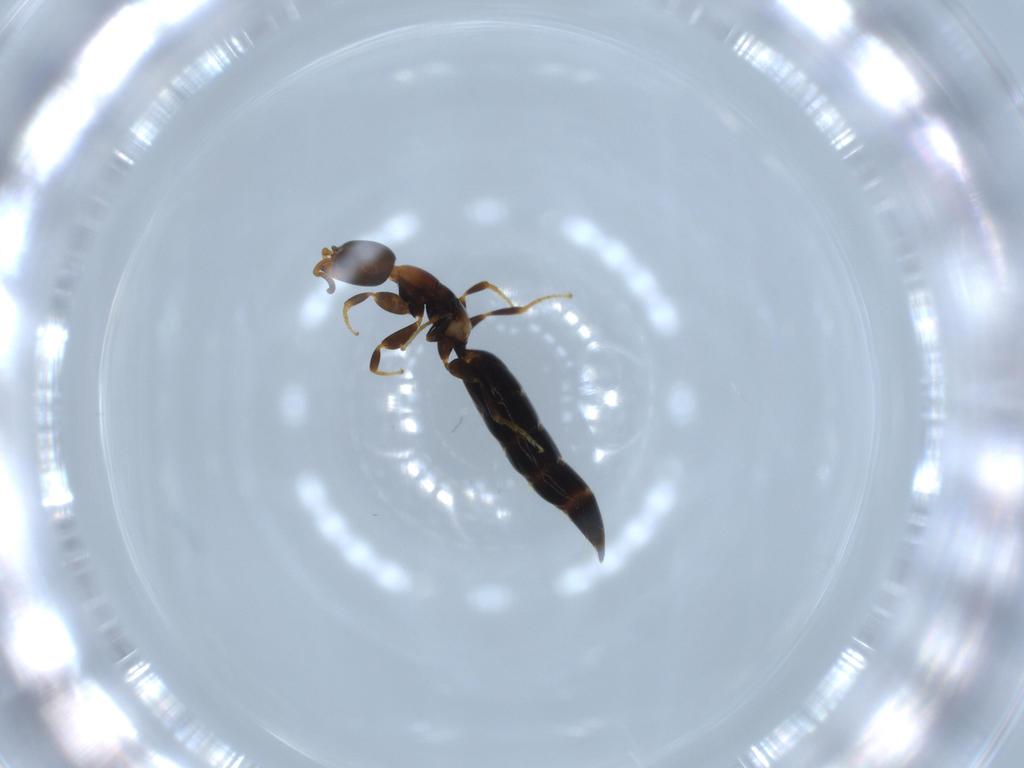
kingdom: Animalia
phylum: Arthropoda
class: Insecta
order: Hymenoptera
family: Bethylidae
